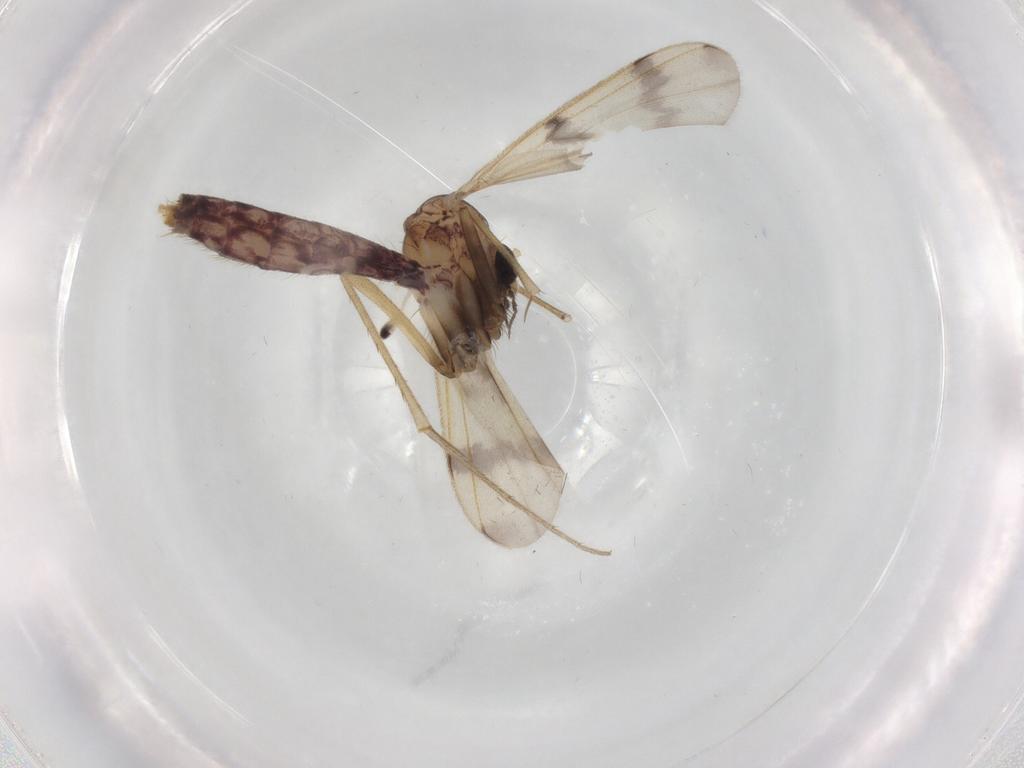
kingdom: Animalia
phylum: Arthropoda
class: Insecta
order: Diptera
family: Mycetophilidae
